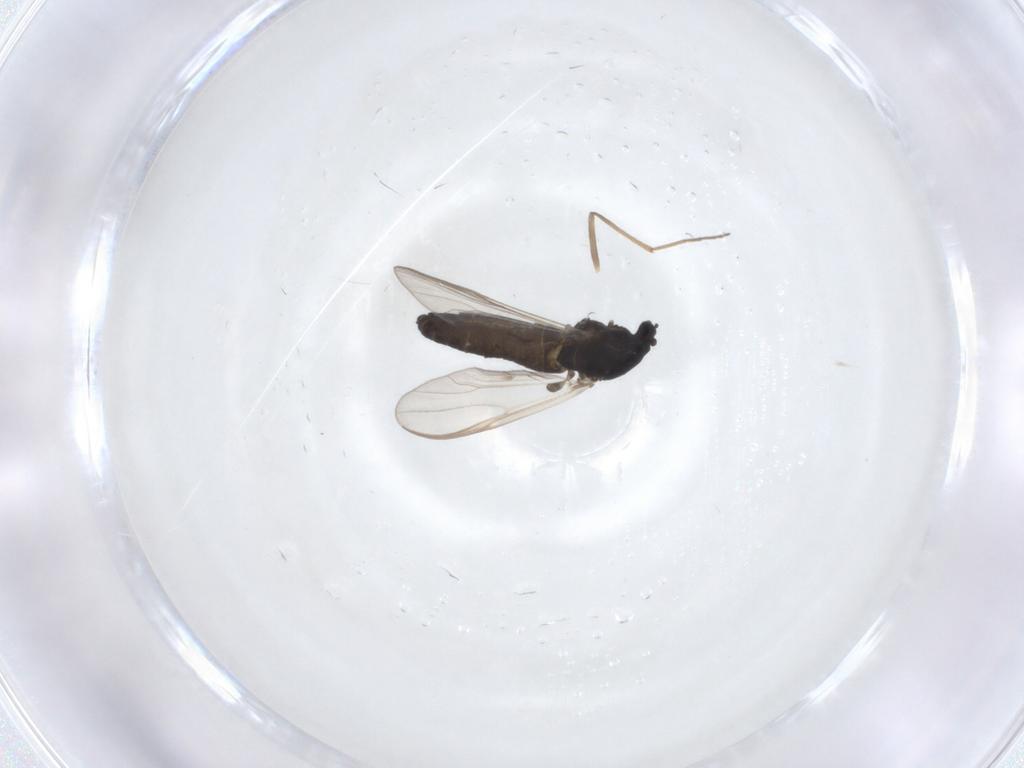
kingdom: Animalia
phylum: Arthropoda
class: Insecta
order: Diptera
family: Chironomidae
